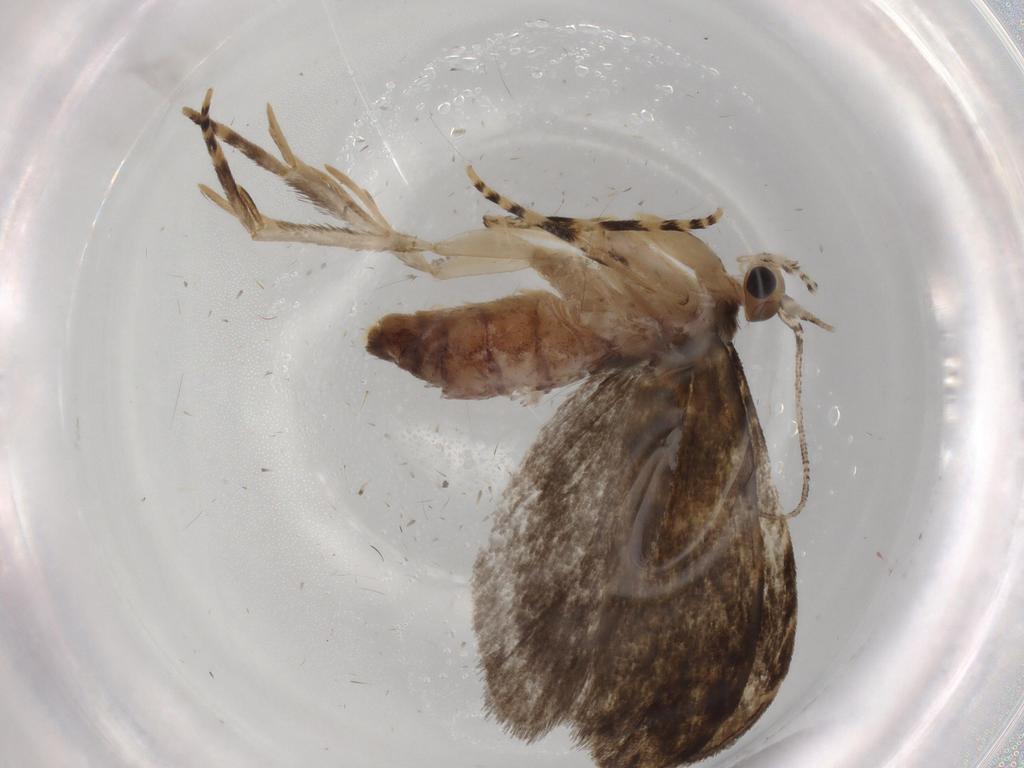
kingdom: Animalia
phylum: Arthropoda
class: Insecta
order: Lepidoptera
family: Tineidae
